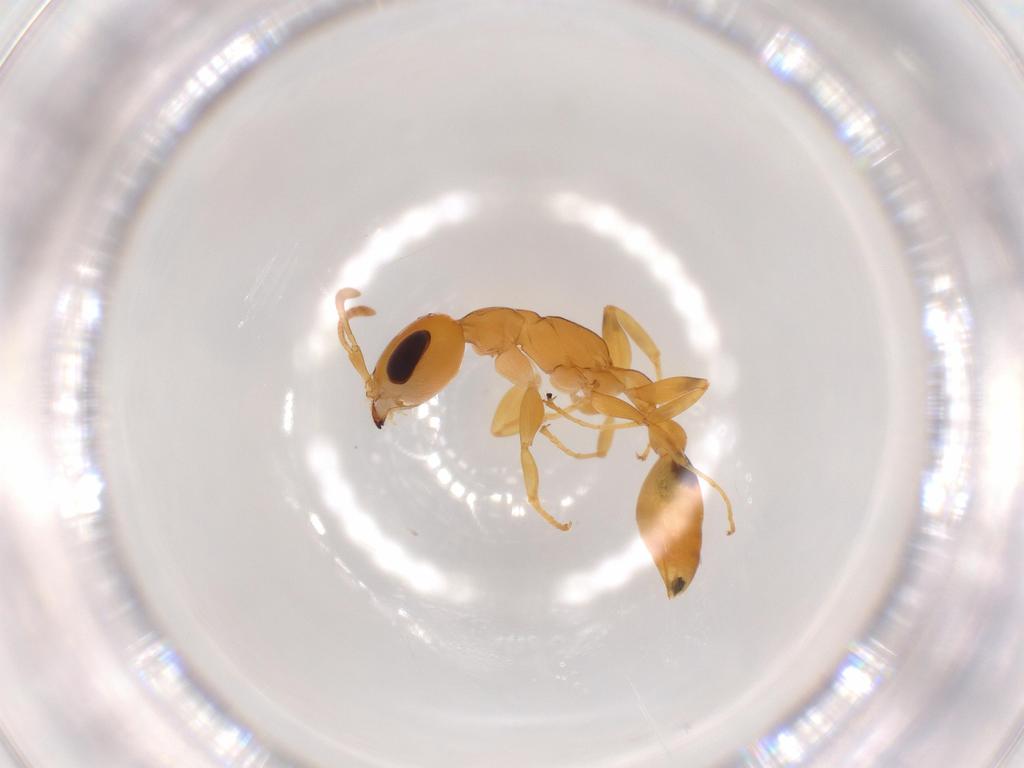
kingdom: Animalia
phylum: Arthropoda
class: Insecta
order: Hymenoptera
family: Formicidae
